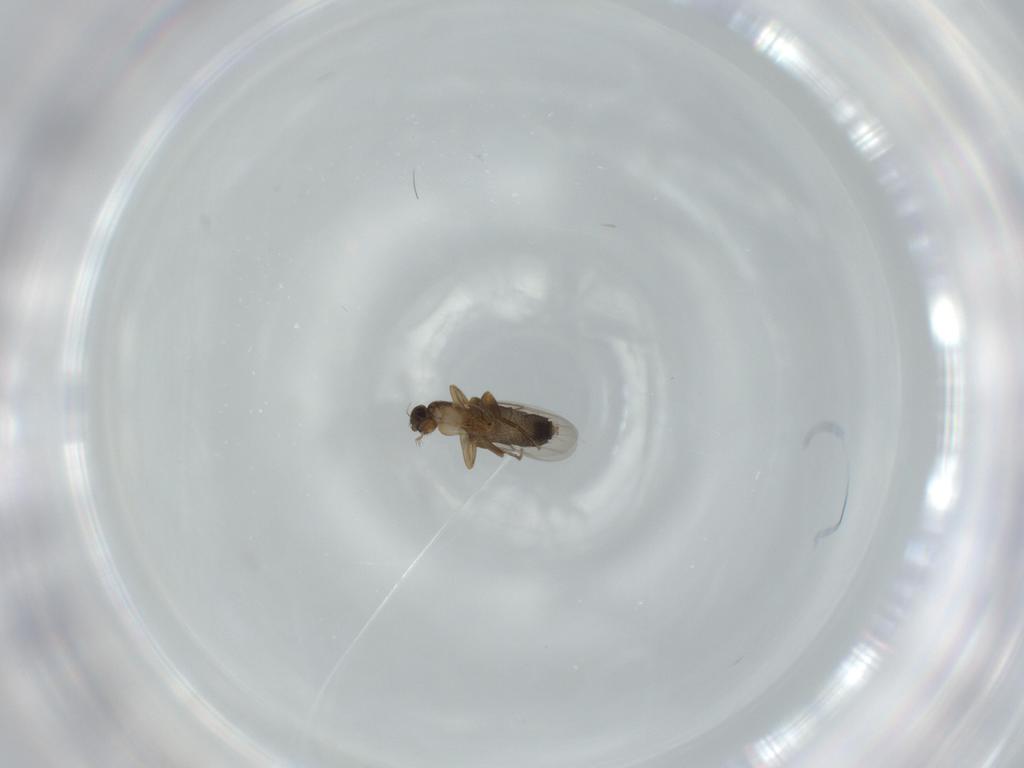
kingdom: Animalia
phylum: Arthropoda
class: Insecta
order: Diptera
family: Phoridae
